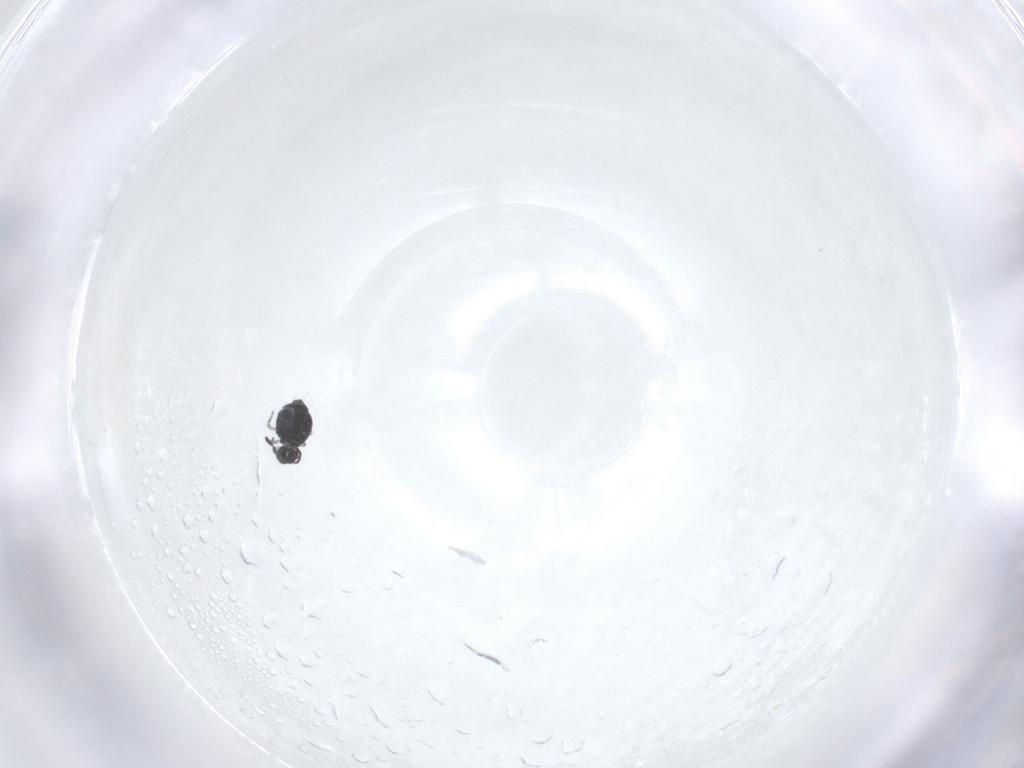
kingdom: Animalia
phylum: Arthropoda
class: Collembola
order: Symphypleona
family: Katiannidae
